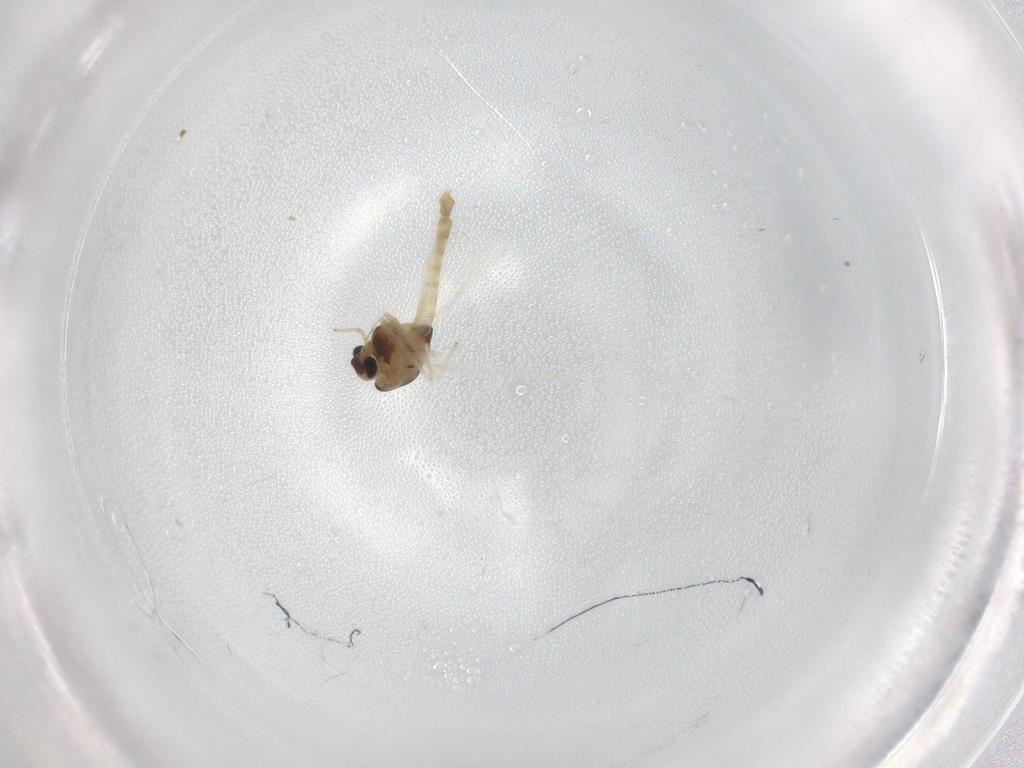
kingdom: Animalia
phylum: Arthropoda
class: Insecta
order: Diptera
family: Chironomidae
